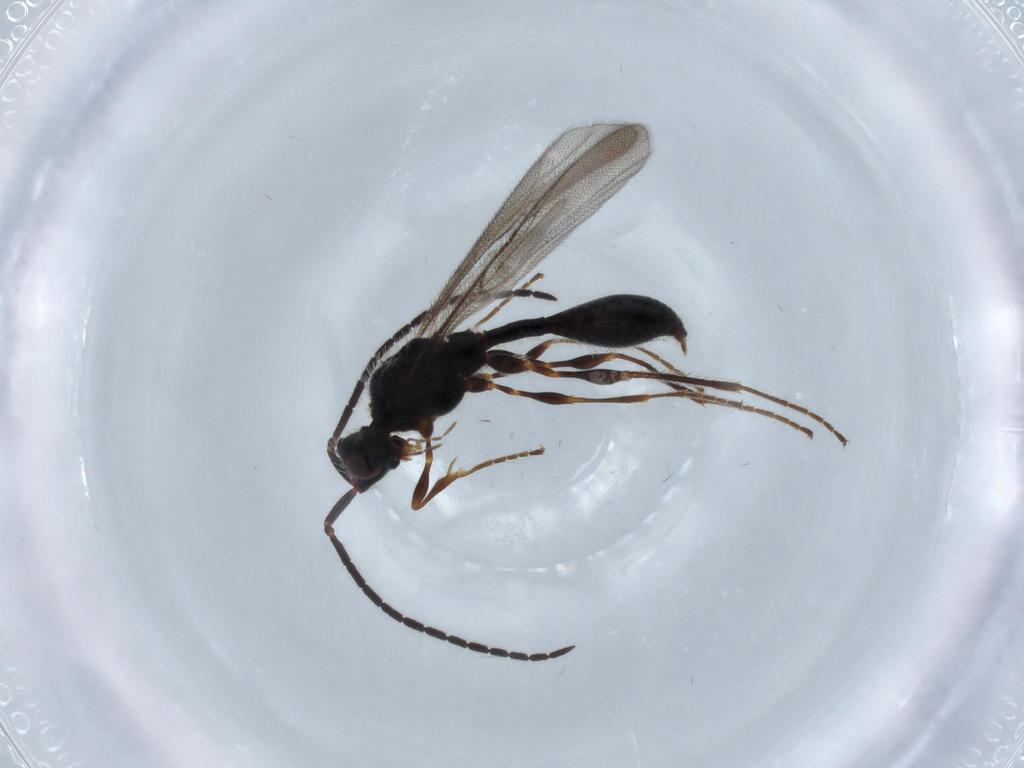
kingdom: Animalia
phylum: Arthropoda
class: Insecta
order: Hymenoptera
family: Diapriidae
